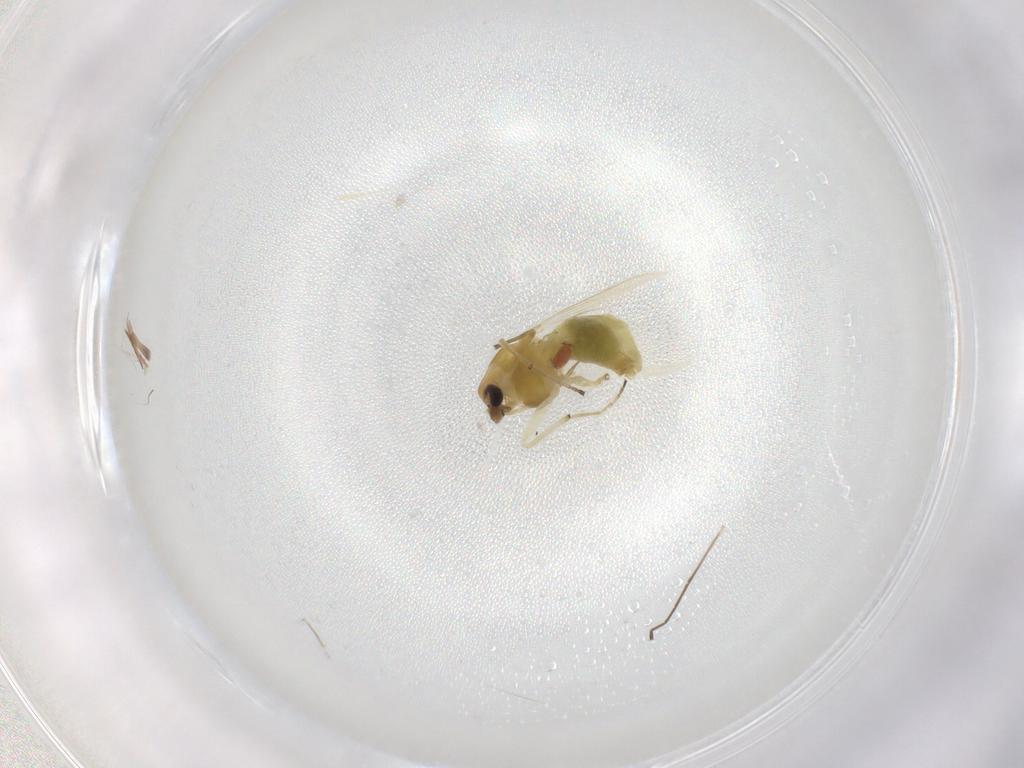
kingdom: Animalia
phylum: Arthropoda
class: Insecta
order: Diptera
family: Chironomidae
